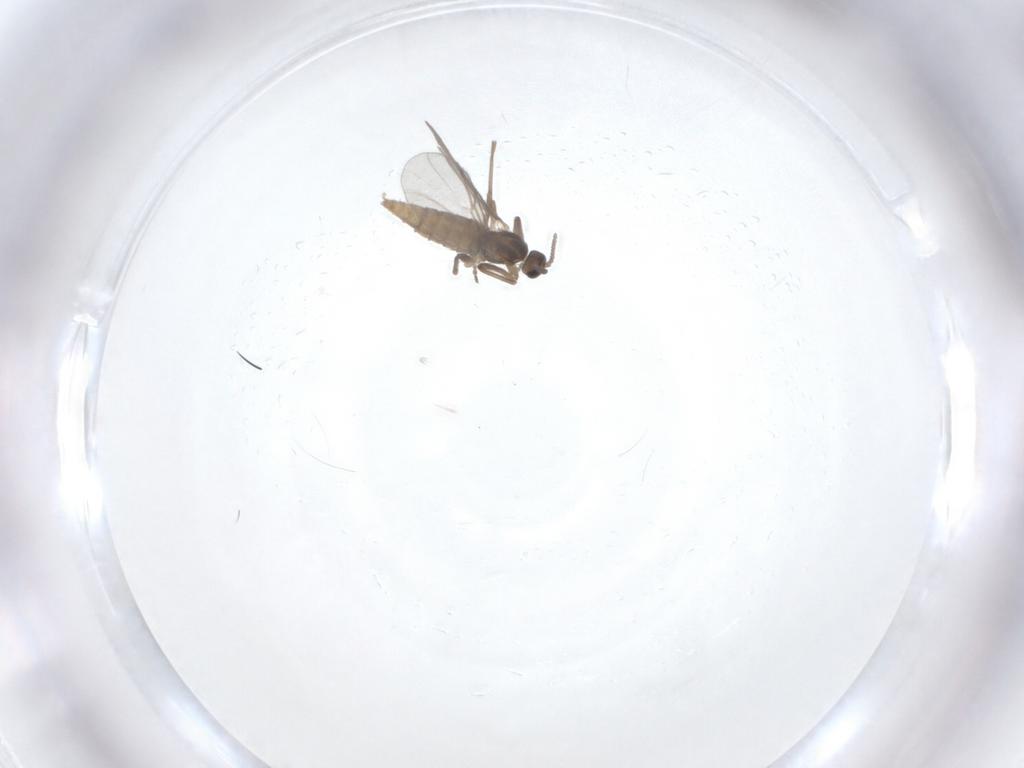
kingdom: Animalia
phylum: Arthropoda
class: Insecta
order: Diptera
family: Cecidomyiidae
